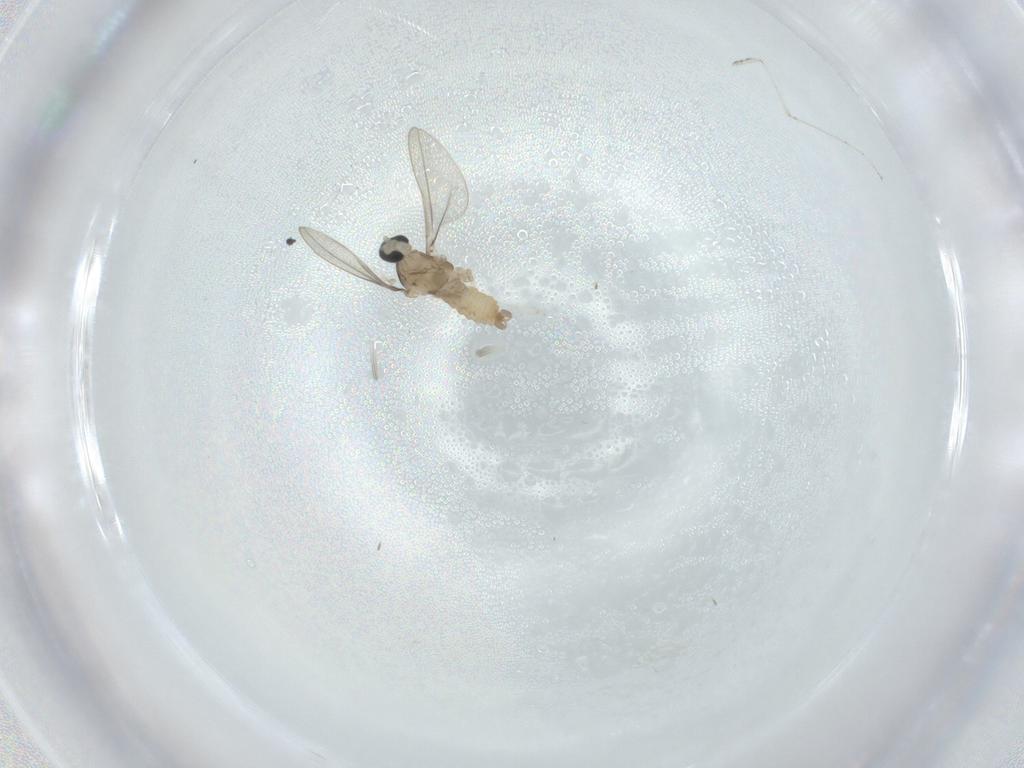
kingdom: Animalia
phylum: Arthropoda
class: Insecta
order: Diptera
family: Cecidomyiidae
